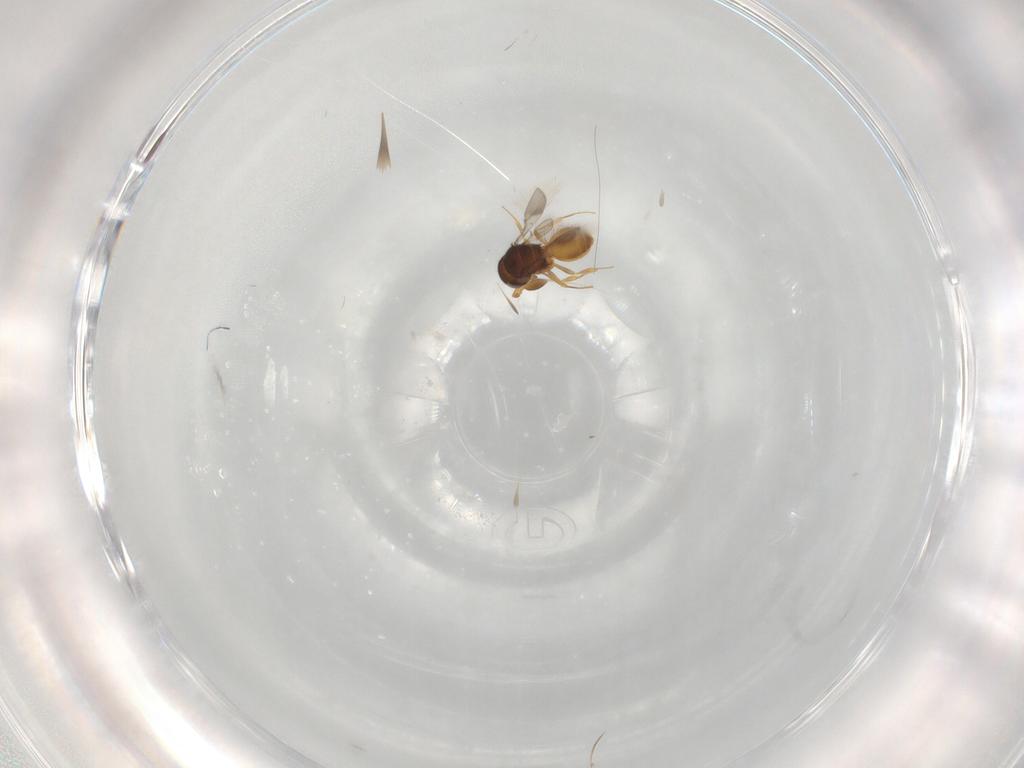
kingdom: Animalia
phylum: Arthropoda
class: Insecta
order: Hymenoptera
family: Scelionidae
